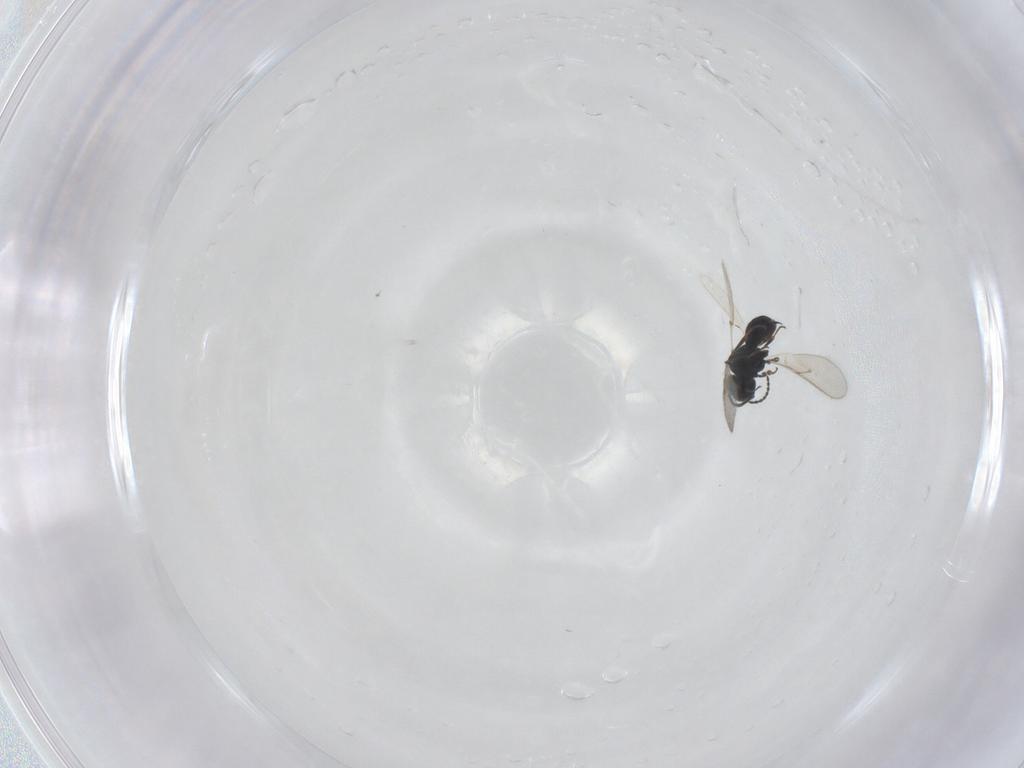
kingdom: Animalia
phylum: Arthropoda
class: Insecta
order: Hymenoptera
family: Scelionidae
